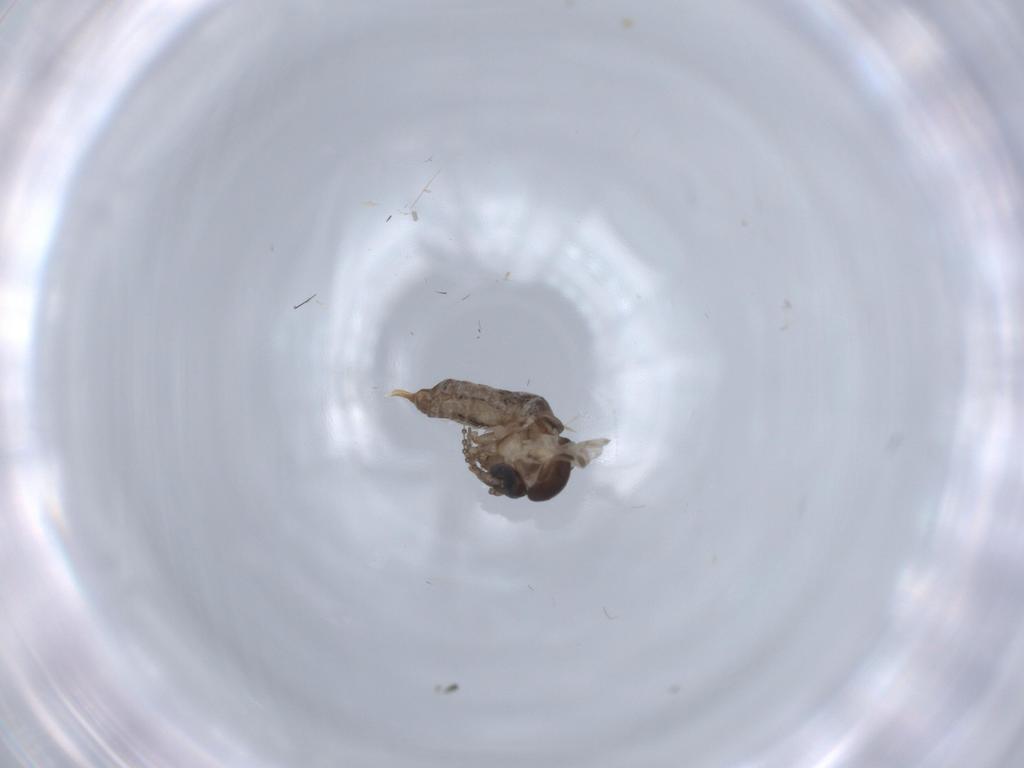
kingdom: Animalia
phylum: Arthropoda
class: Insecta
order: Diptera
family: Psychodidae
